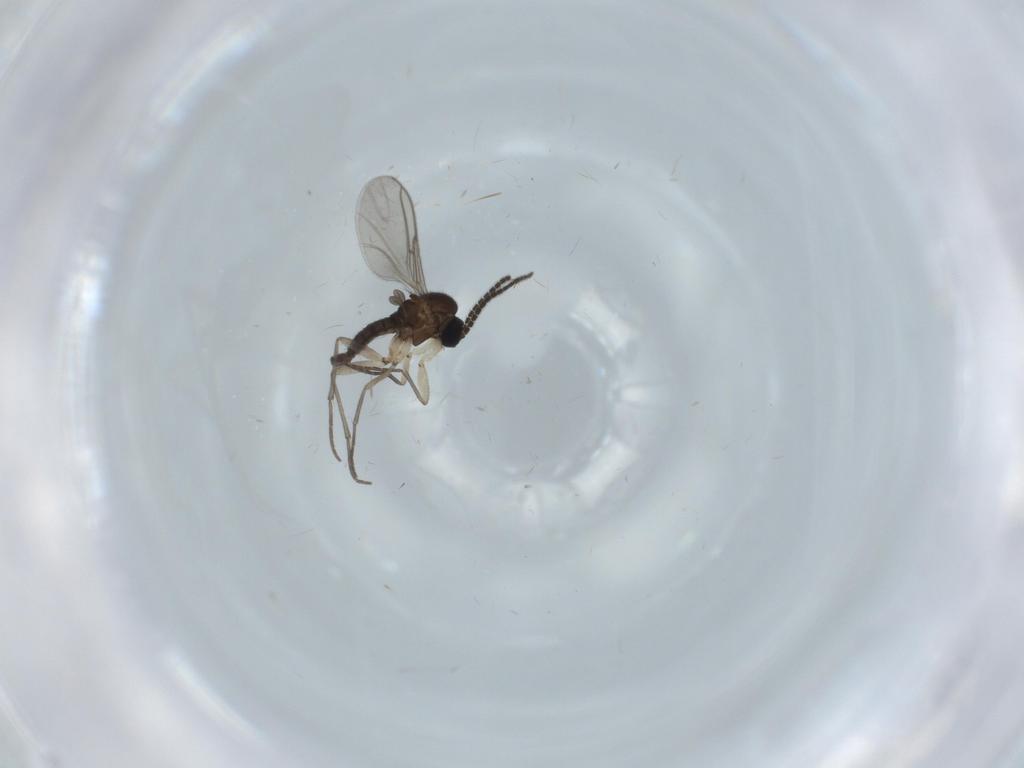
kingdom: Animalia
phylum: Arthropoda
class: Insecta
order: Diptera
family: Sciaridae
